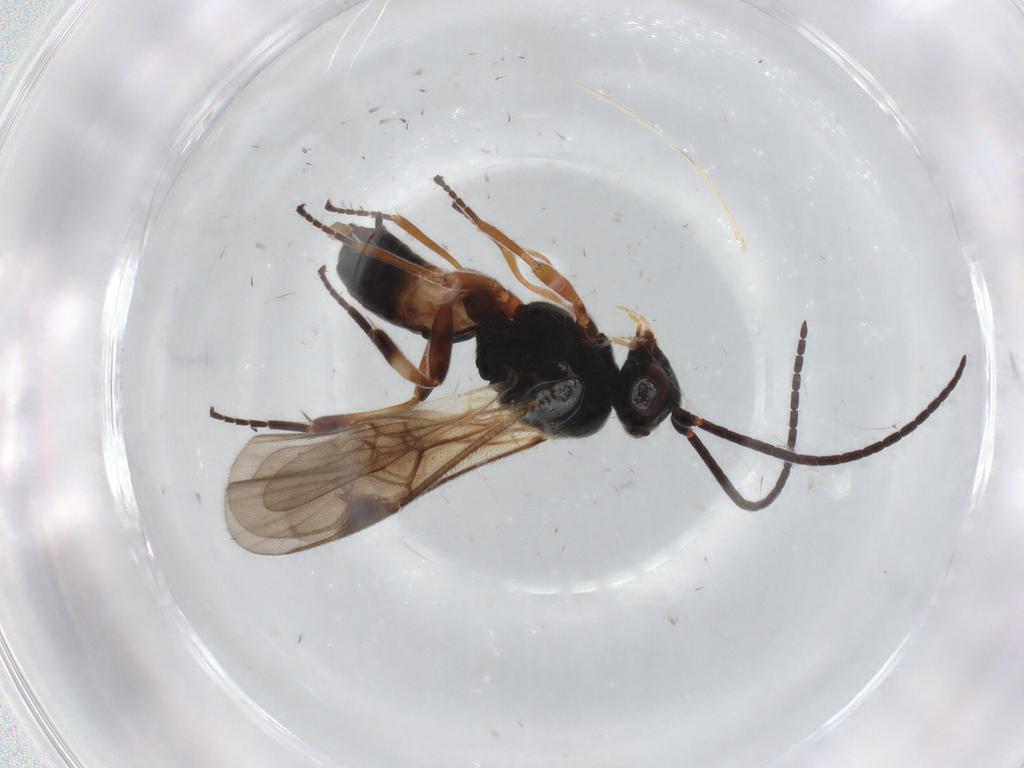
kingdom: Animalia
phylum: Arthropoda
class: Insecta
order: Hymenoptera
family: Braconidae
